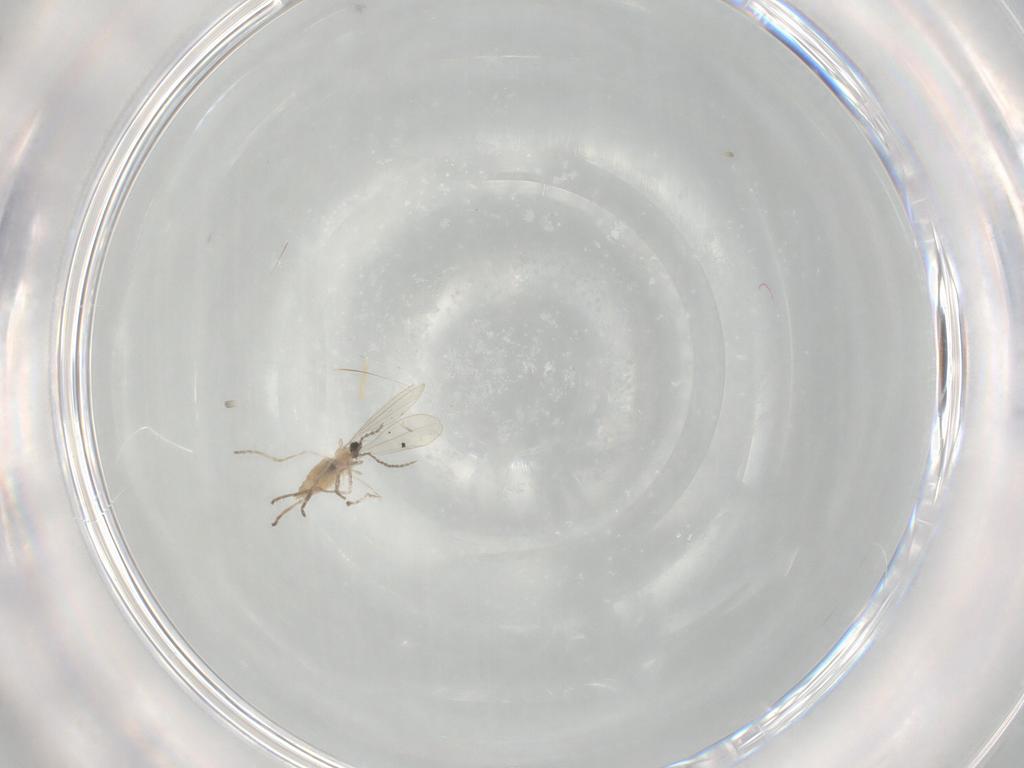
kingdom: Animalia
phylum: Arthropoda
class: Insecta
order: Diptera
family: Cecidomyiidae
